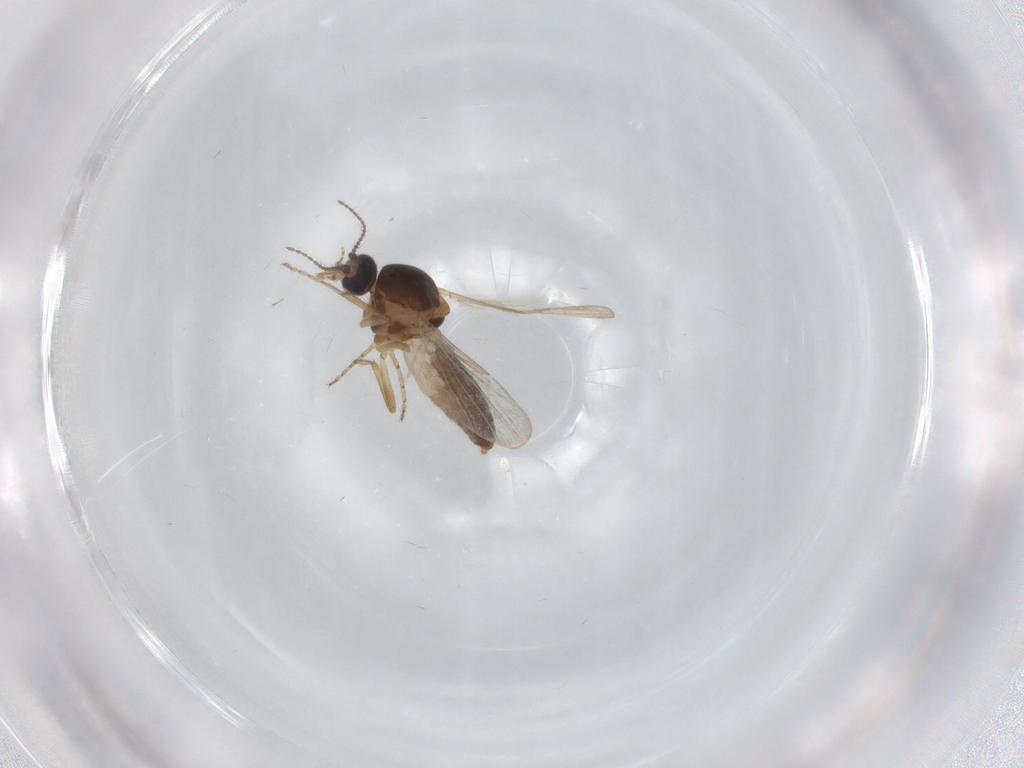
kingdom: Animalia
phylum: Arthropoda
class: Insecta
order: Diptera
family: Ceratopogonidae
